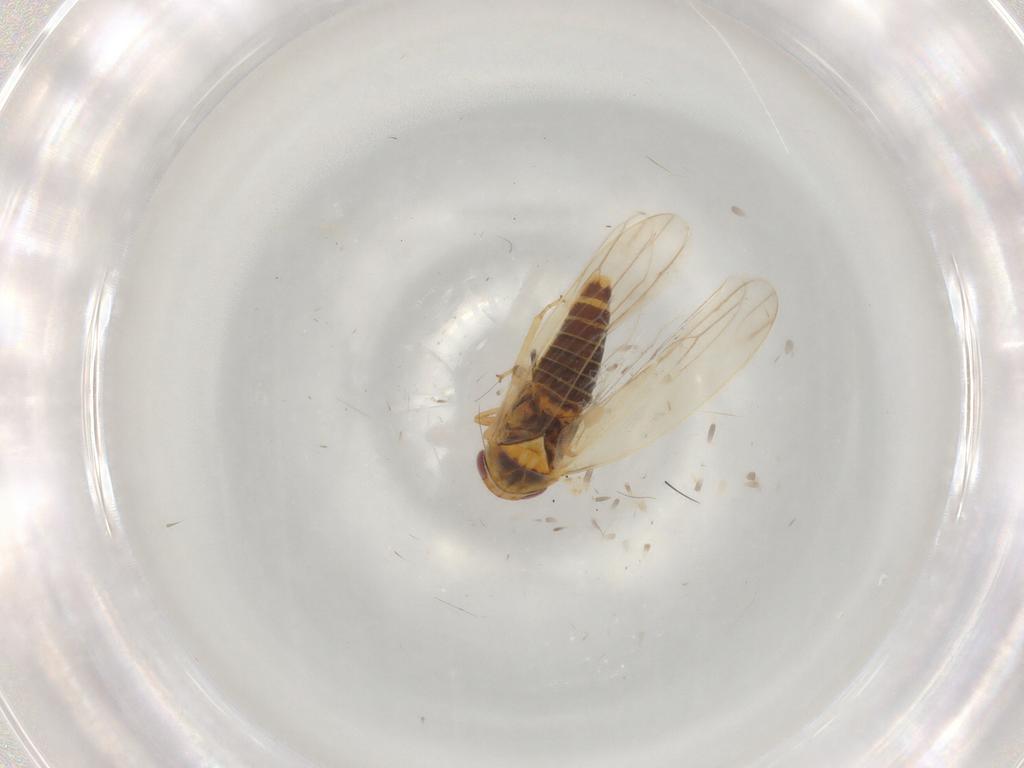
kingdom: Animalia
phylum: Arthropoda
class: Insecta
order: Hemiptera
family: Cicadellidae
